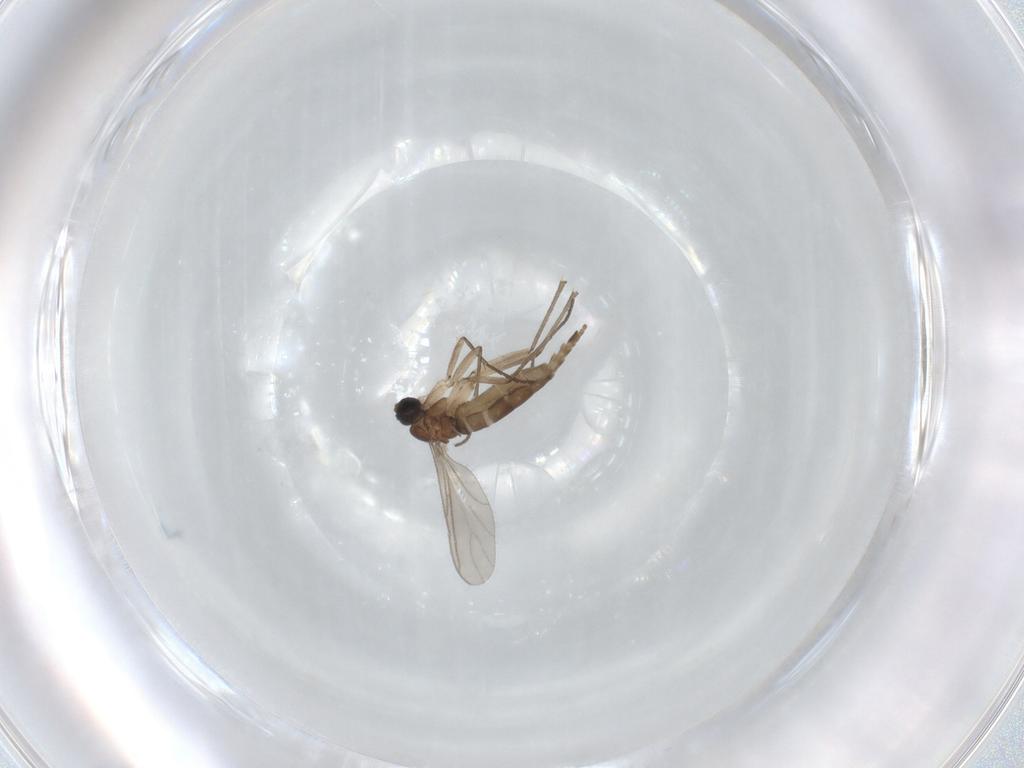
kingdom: Animalia
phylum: Arthropoda
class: Insecta
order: Diptera
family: Sciaridae
